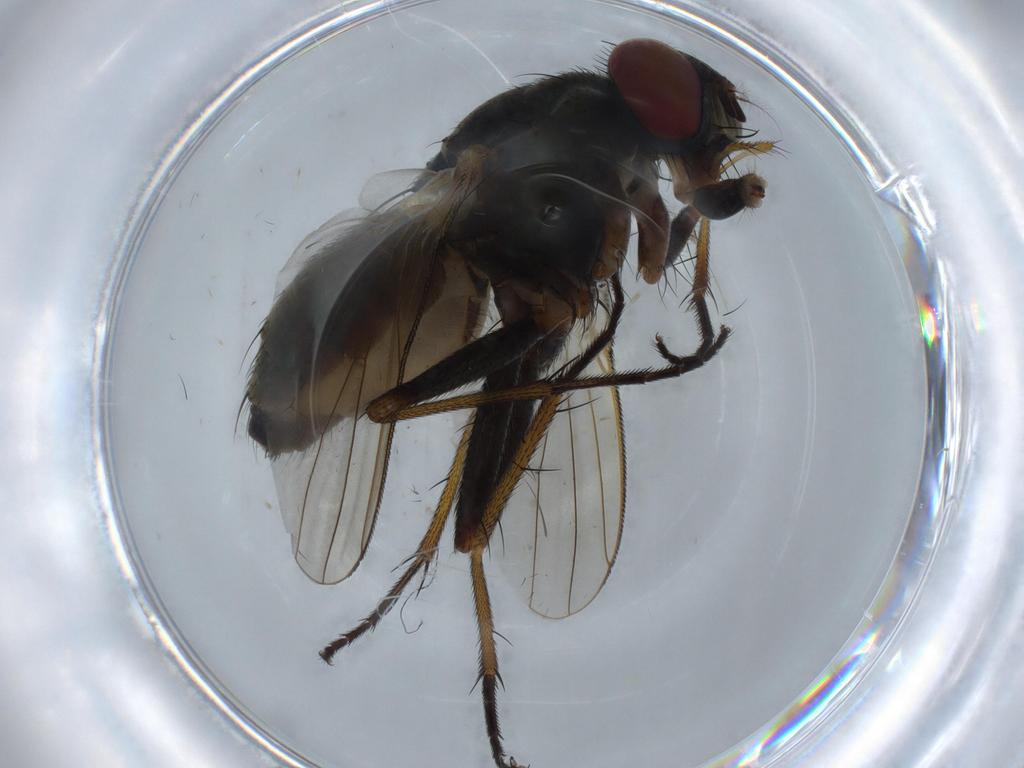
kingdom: Animalia
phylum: Arthropoda
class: Insecta
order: Diptera
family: Muscidae
